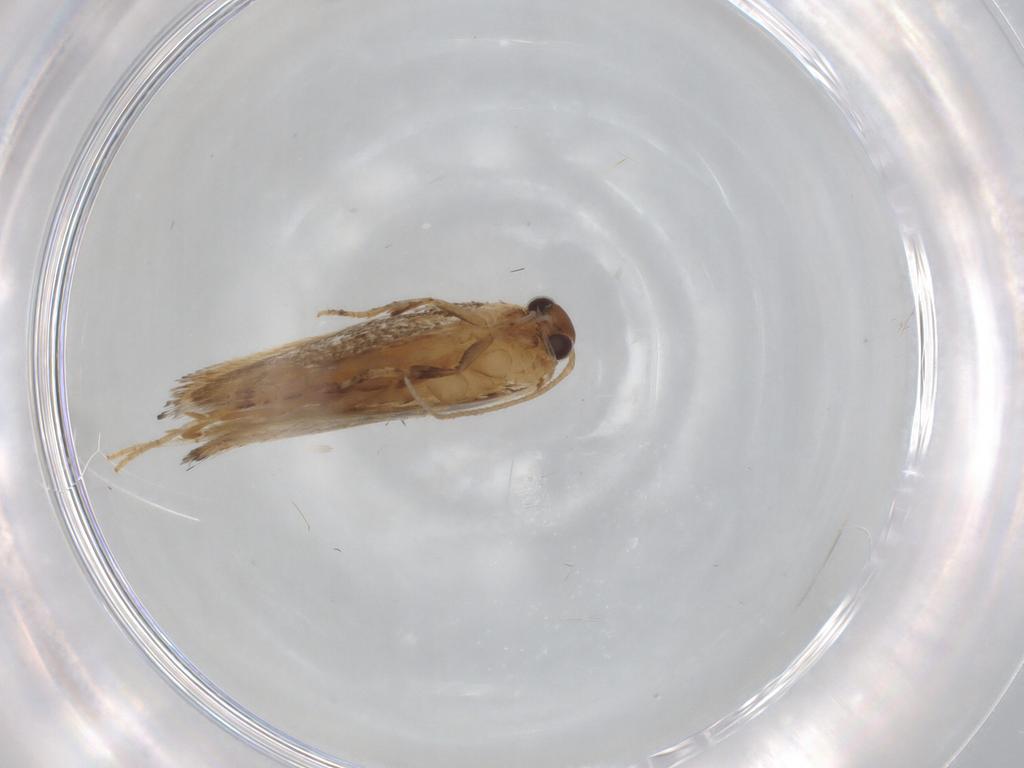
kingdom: Animalia
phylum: Arthropoda
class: Insecta
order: Lepidoptera
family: Elachistidae
